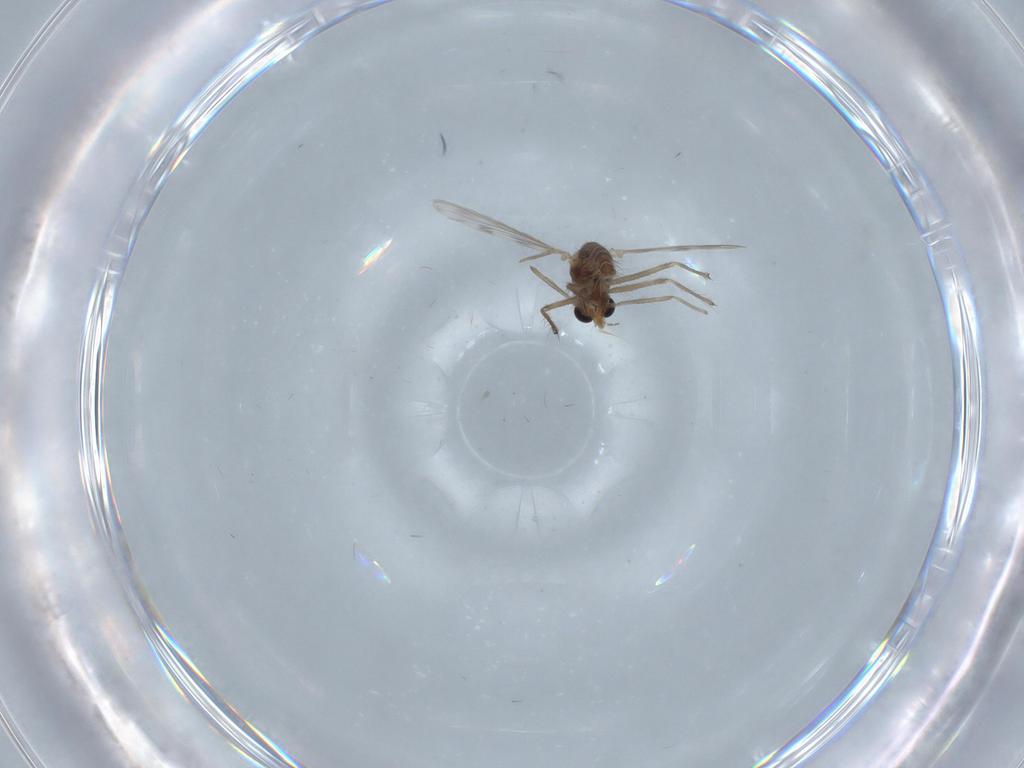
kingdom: Animalia
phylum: Arthropoda
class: Insecta
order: Diptera
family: Chironomidae
